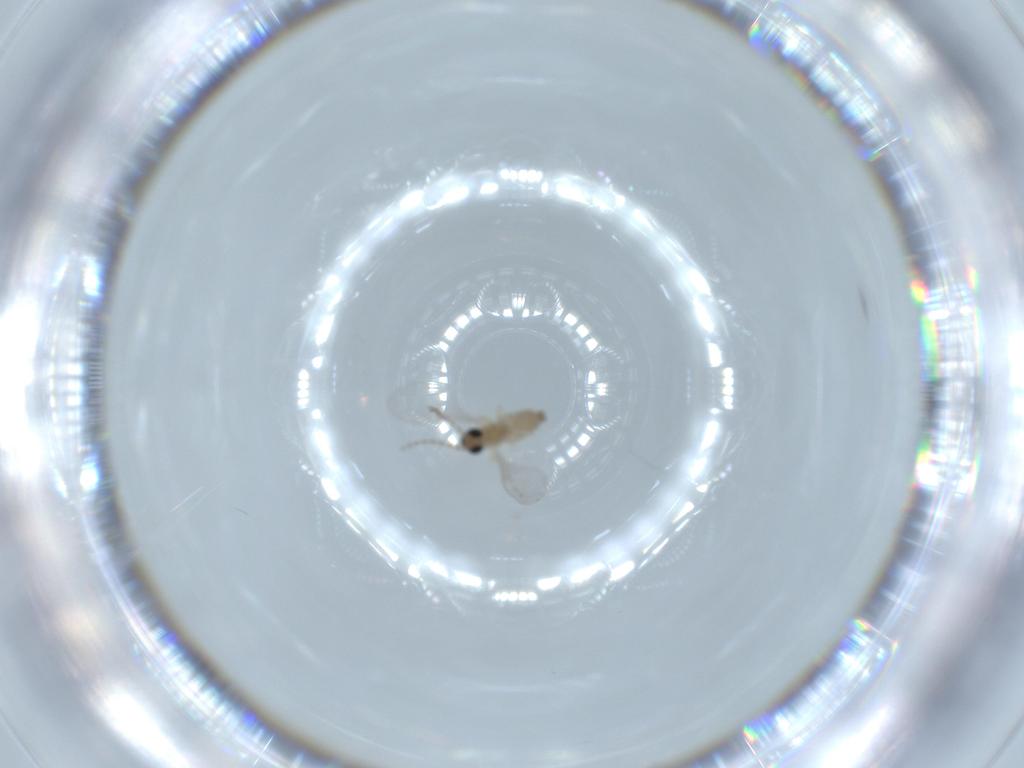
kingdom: Animalia
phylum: Arthropoda
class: Insecta
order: Diptera
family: Cecidomyiidae
